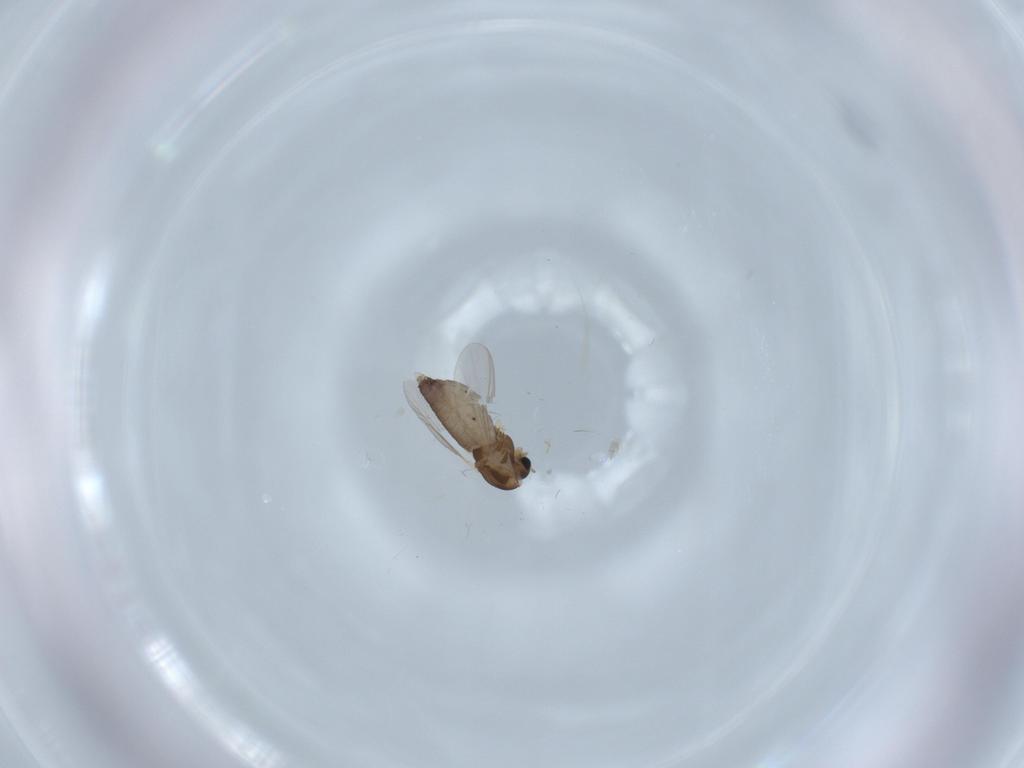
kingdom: Animalia
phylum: Arthropoda
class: Insecta
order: Diptera
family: Chironomidae
